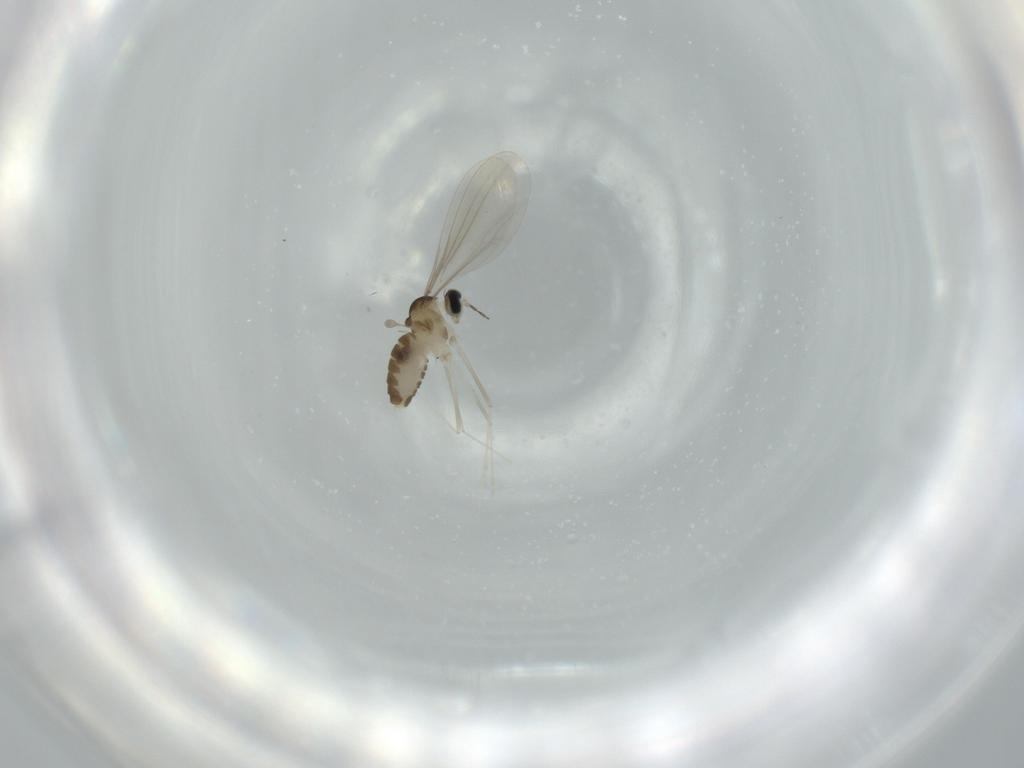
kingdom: Animalia
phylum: Arthropoda
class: Insecta
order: Diptera
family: Cecidomyiidae
